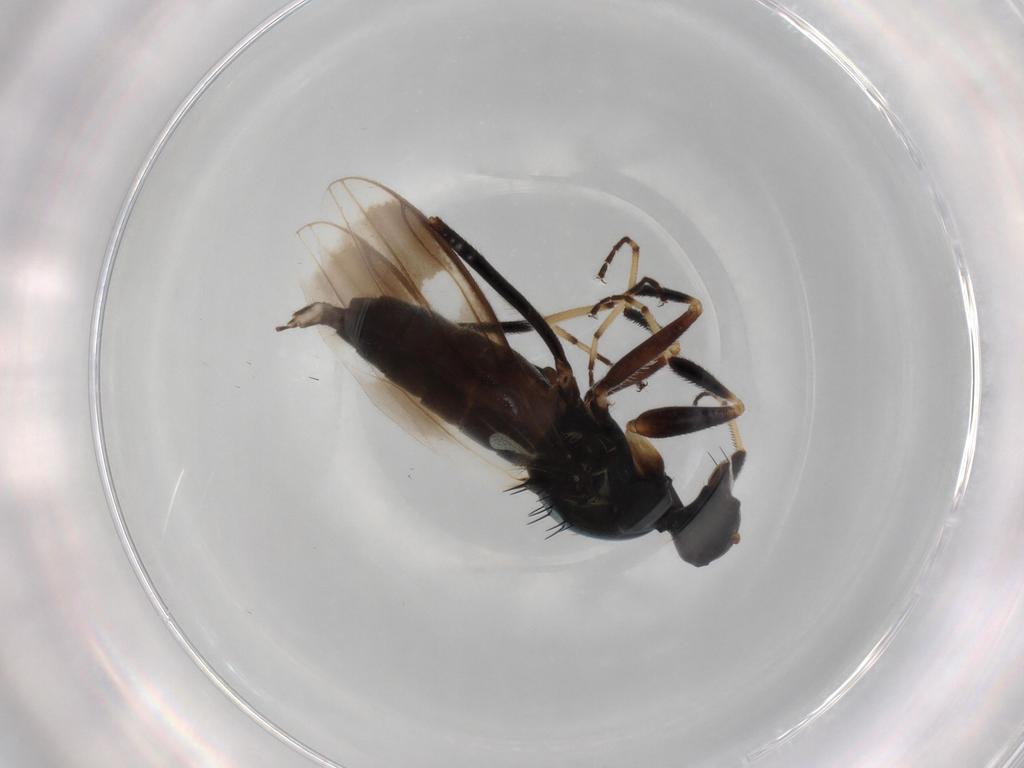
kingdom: Animalia
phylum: Arthropoda
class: Insecta
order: Diptera
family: Hybotidae
